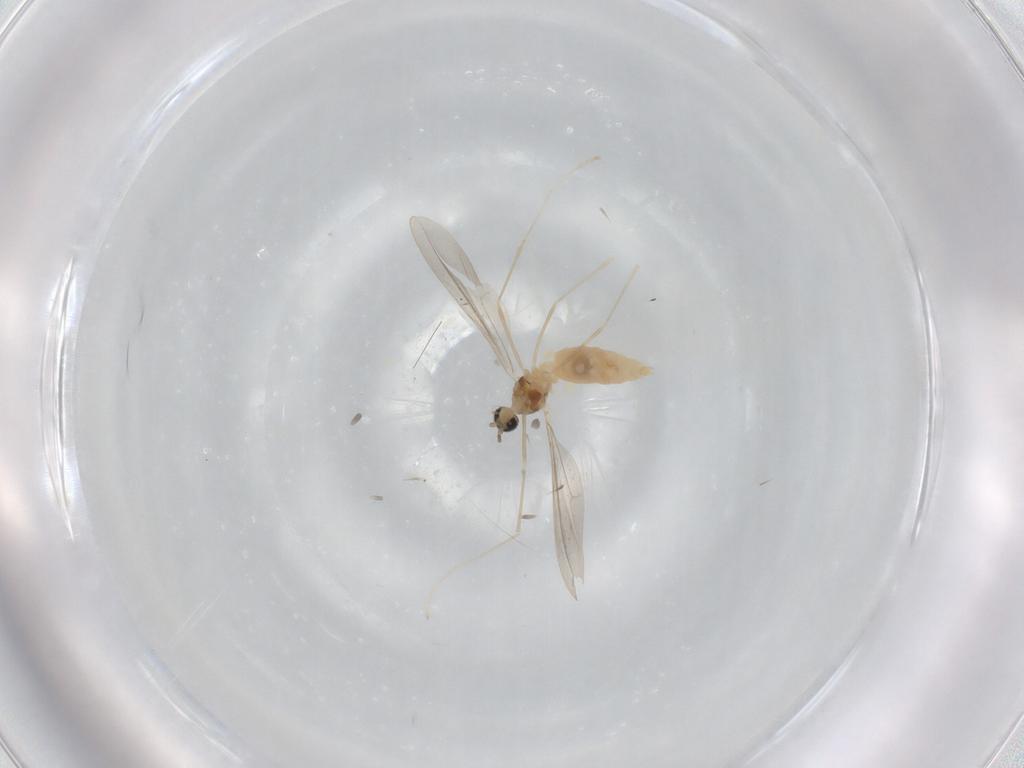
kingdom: Animalia
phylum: Arthropoda
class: Insecta
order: Diptera
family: Cecidomyiidae
